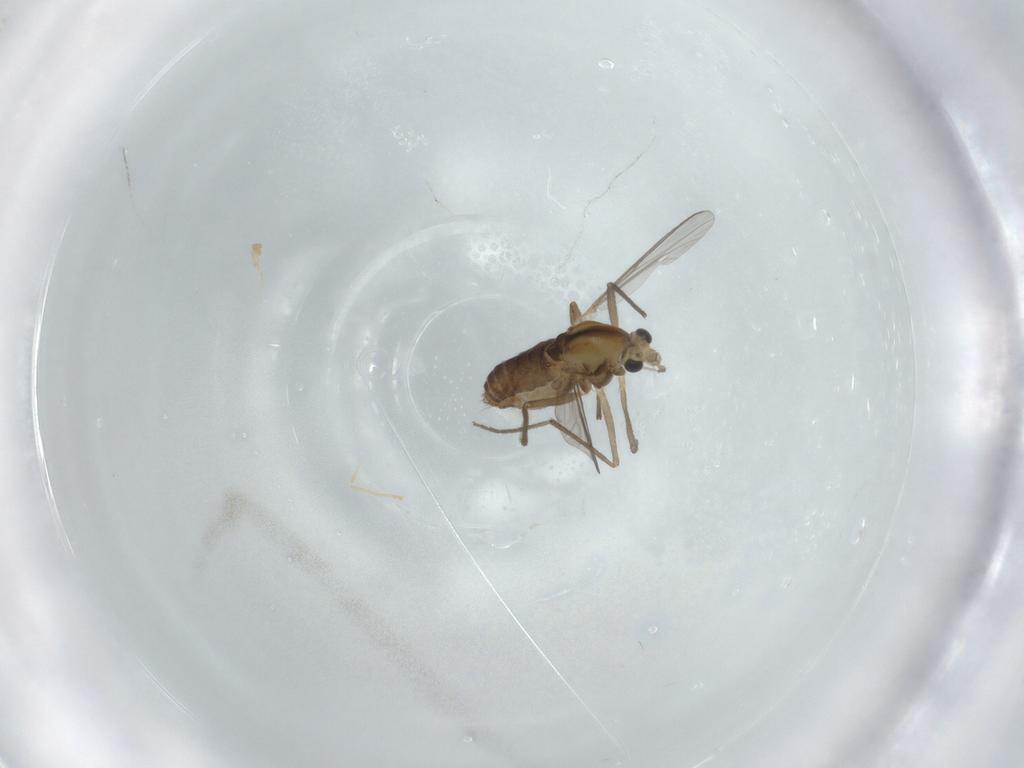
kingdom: Animalia
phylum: Arthropoda
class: Insecta
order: Diptera
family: Chironomidae
